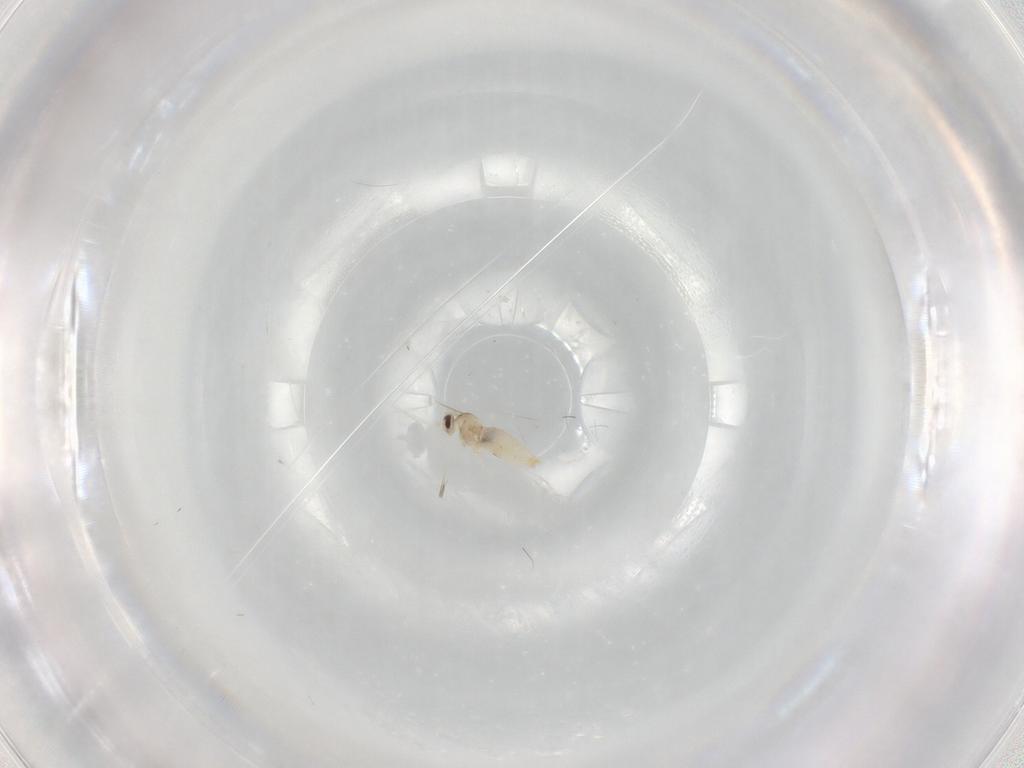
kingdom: Animalia
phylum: Arthropoda
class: Insecta
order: Diptera
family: Cecidomyiidae
